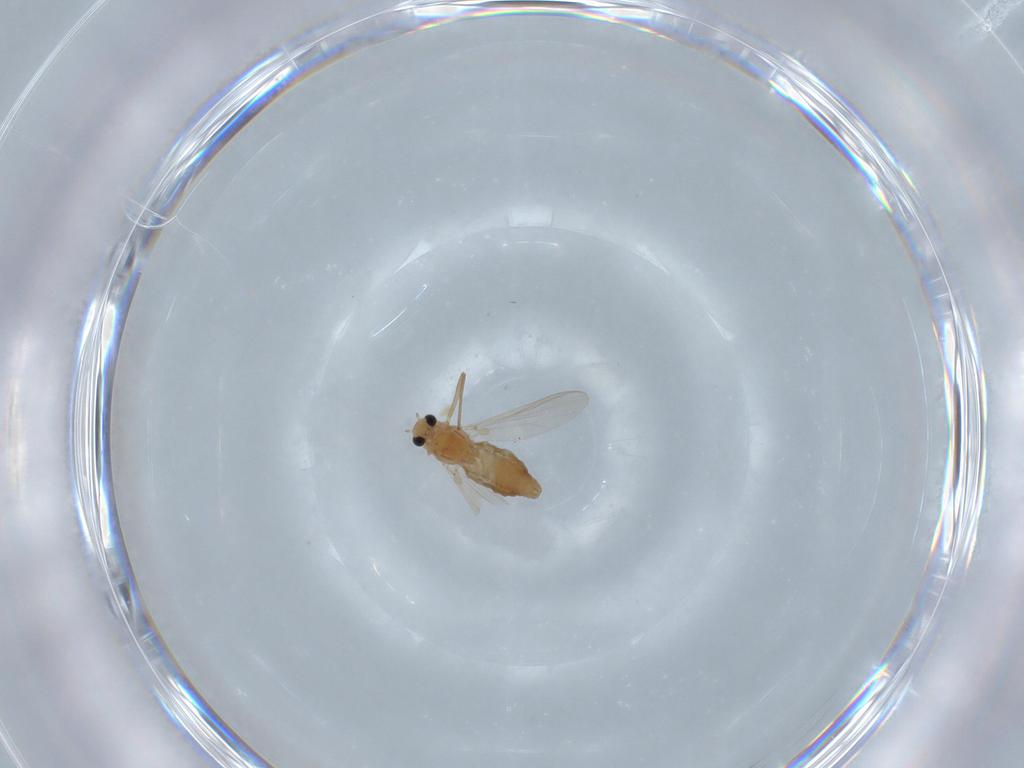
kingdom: Animalia
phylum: Arthropoda
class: Insecta
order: Diptera
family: Chironomidae
